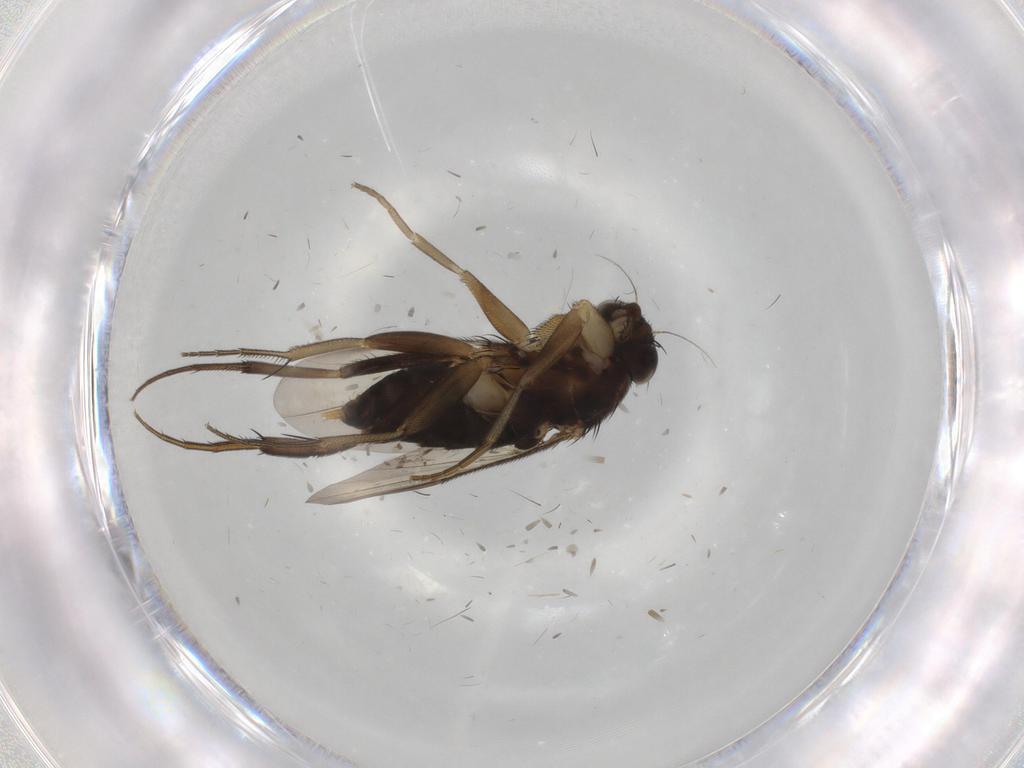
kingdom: Animalia
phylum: Arthropoda
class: Insecta
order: Diptera
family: Phoridae
